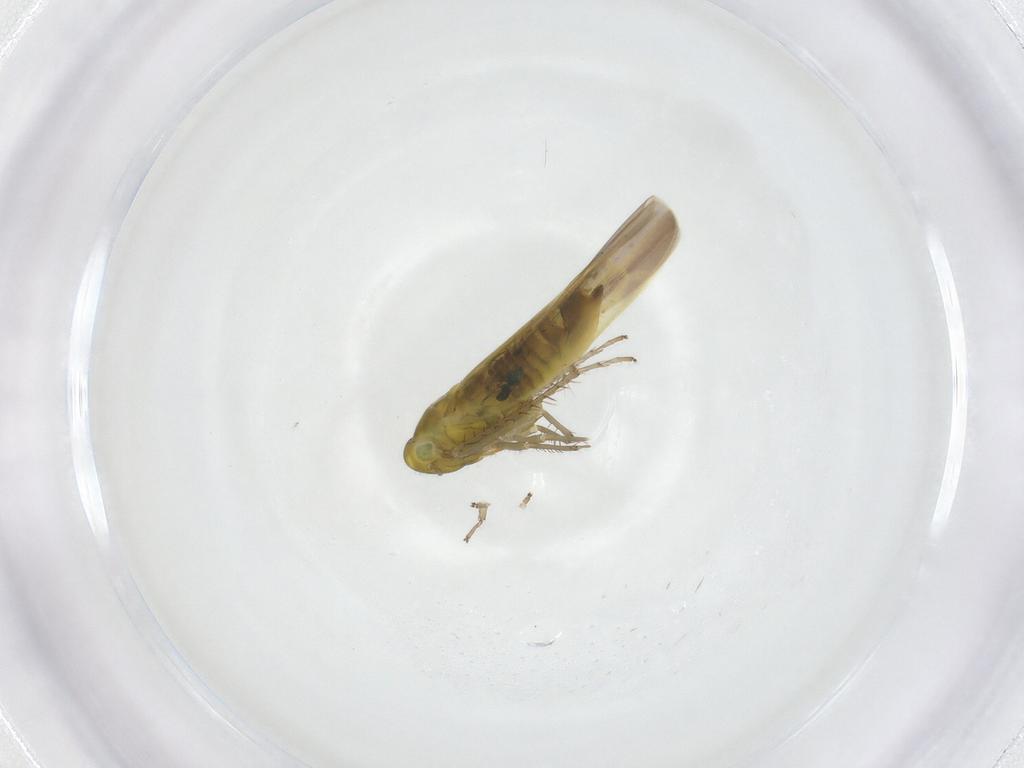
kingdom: Animalia
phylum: Arthropoda
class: Insecta
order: Hemiptera
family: Cicadellidae
